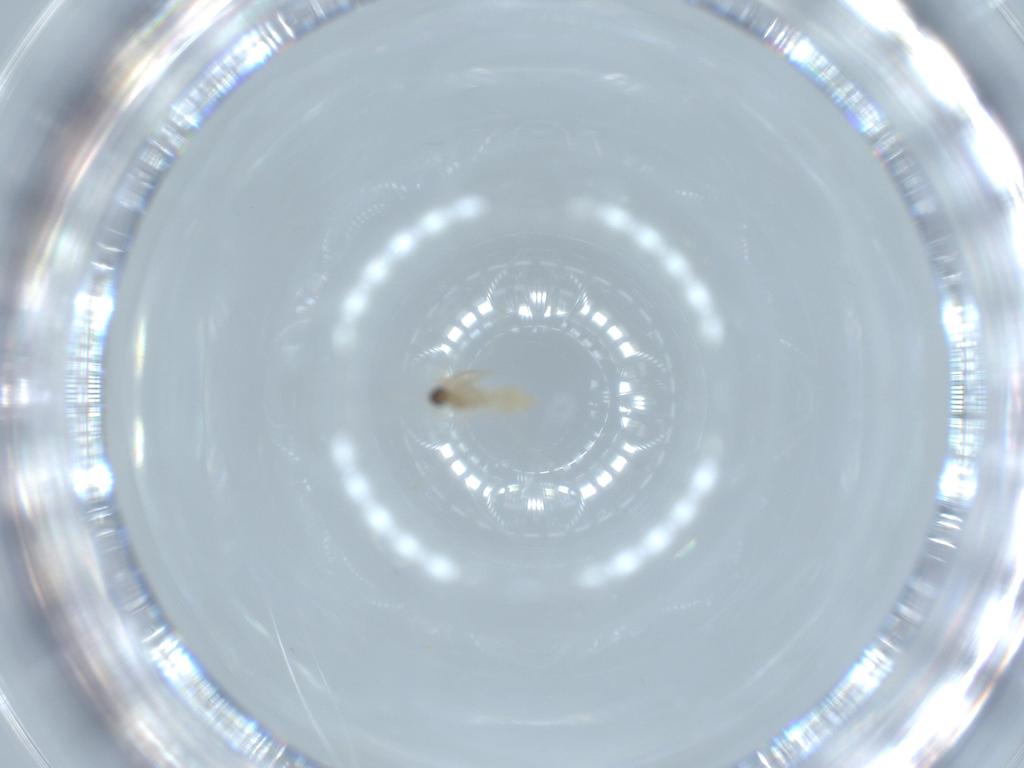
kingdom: Animalia
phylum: Arthropoda
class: Insecta
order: Diptera
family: Cecidomyiidae
